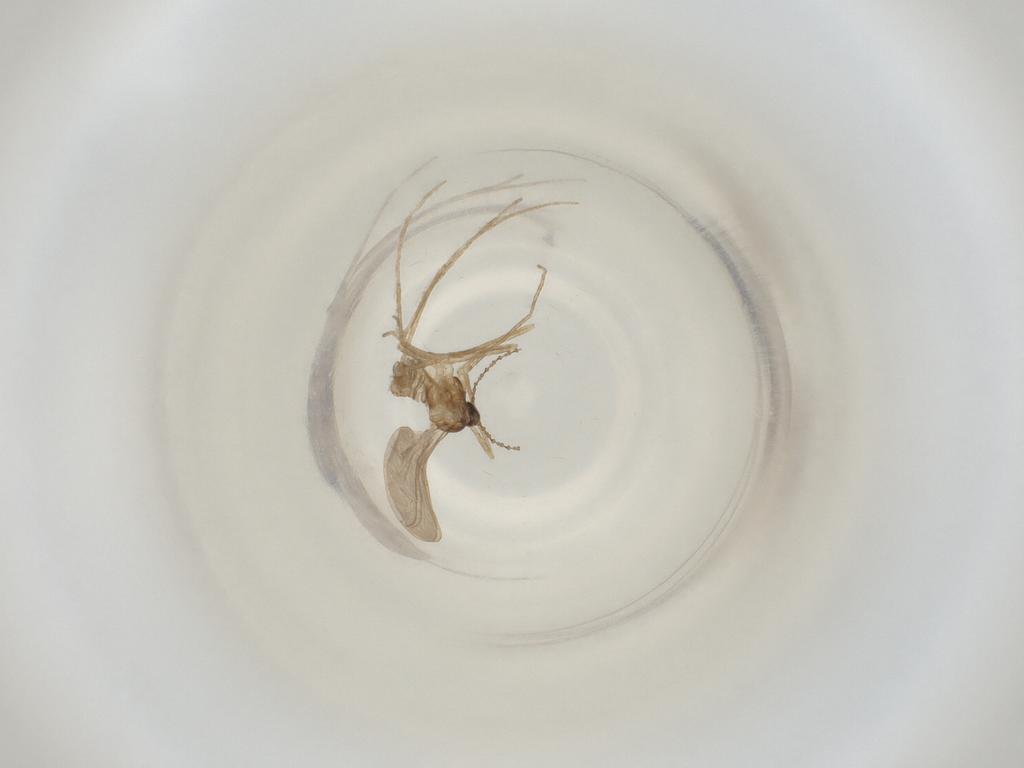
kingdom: Animalia
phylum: Arthropoda
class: Insecta
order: Diptera
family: Cecidomyiidae
